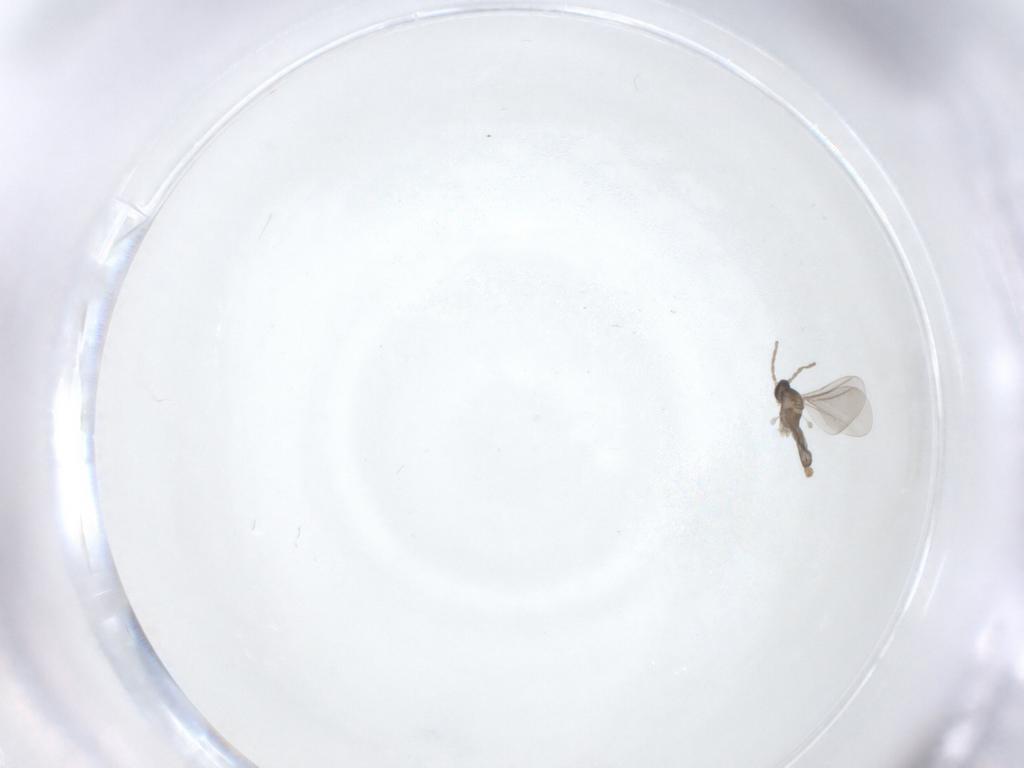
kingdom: Animalia
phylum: Arthropoda
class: Insecta
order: Diptera
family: Cecidomyiidae
